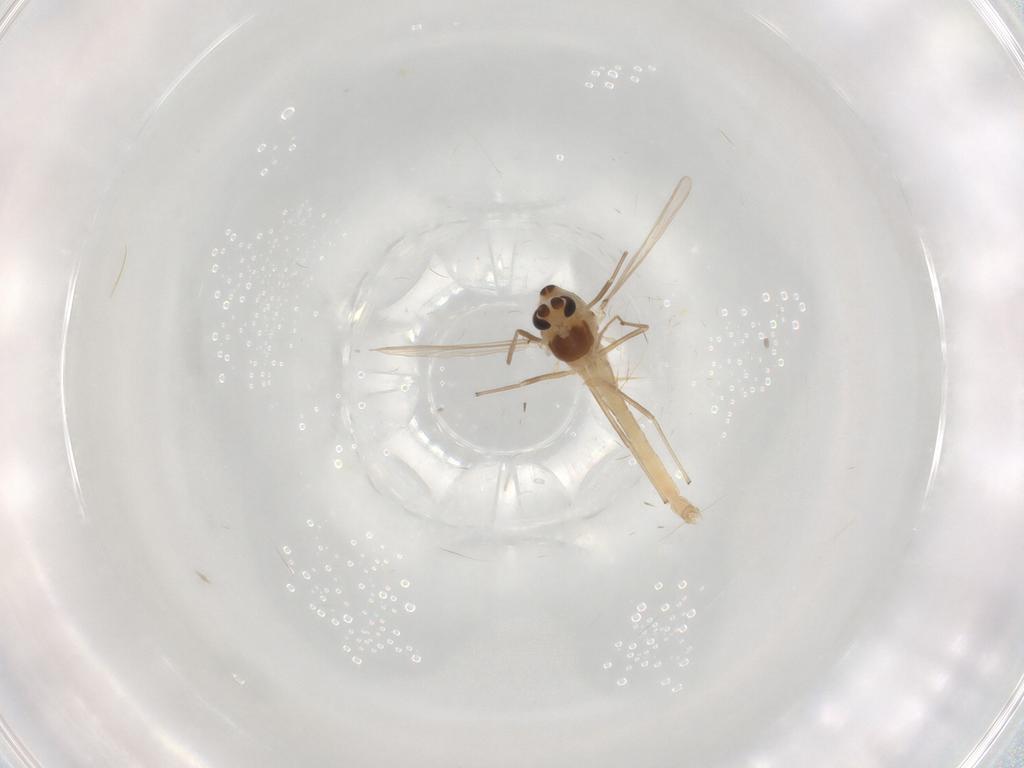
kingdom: Animalia
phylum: Arthropoda
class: Insecta
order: Diptera
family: Chironomidae
